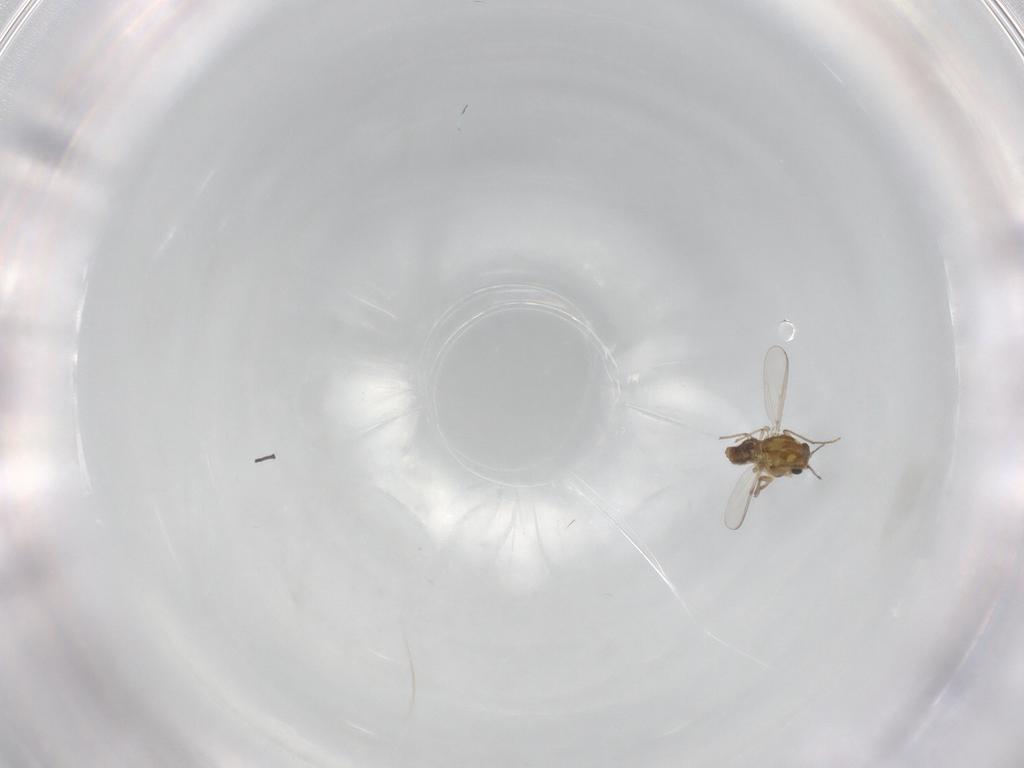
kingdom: Animalia
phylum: Arthropoda
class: Insecta
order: Diptera
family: Chironomidae
